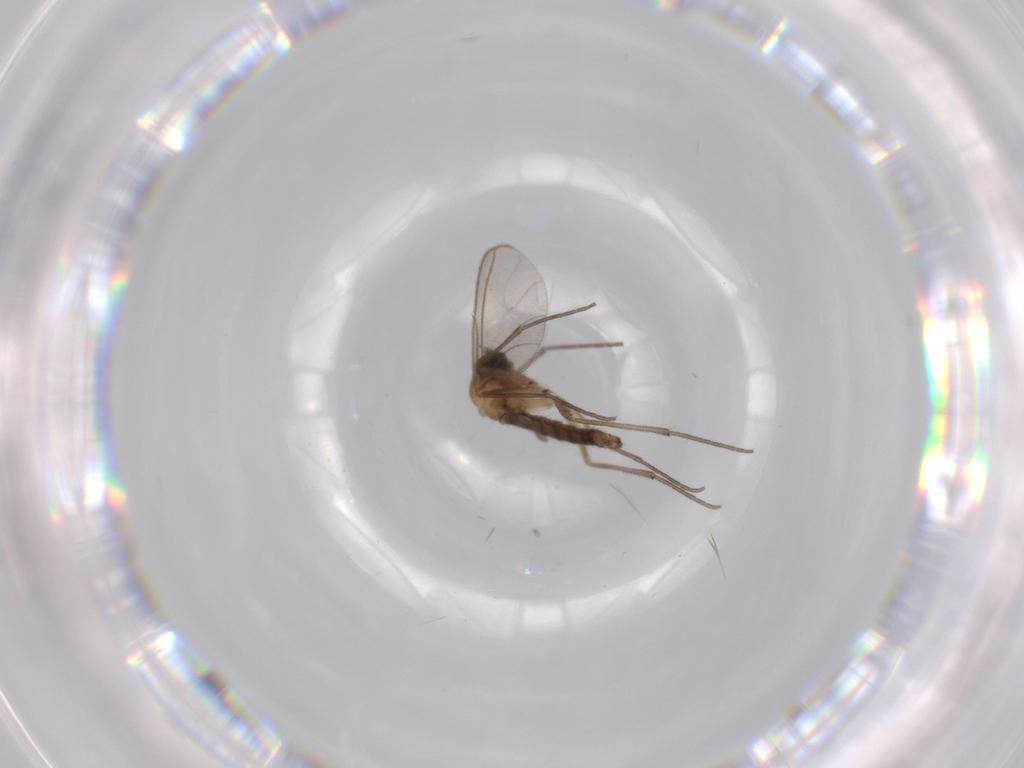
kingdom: Animalia
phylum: Arthropoda
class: Insecta
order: Diptera
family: Sciaridae
